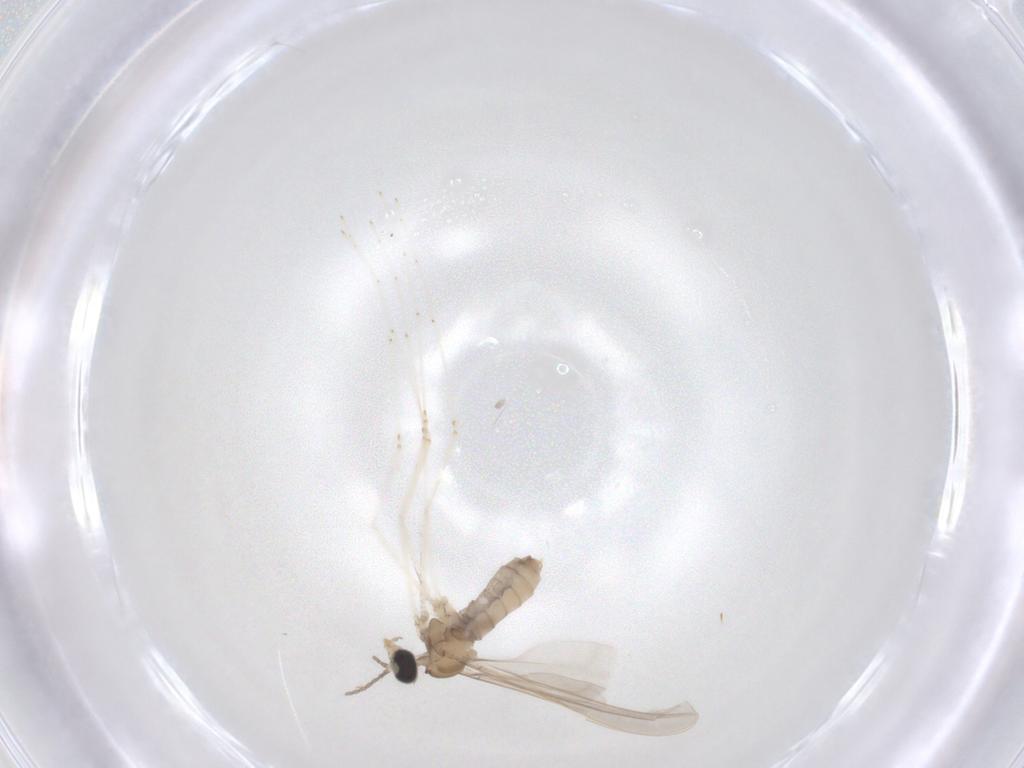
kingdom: Animalia
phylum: Arthropoda
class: Insecta
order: Diptera
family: Cecidomyiidae
